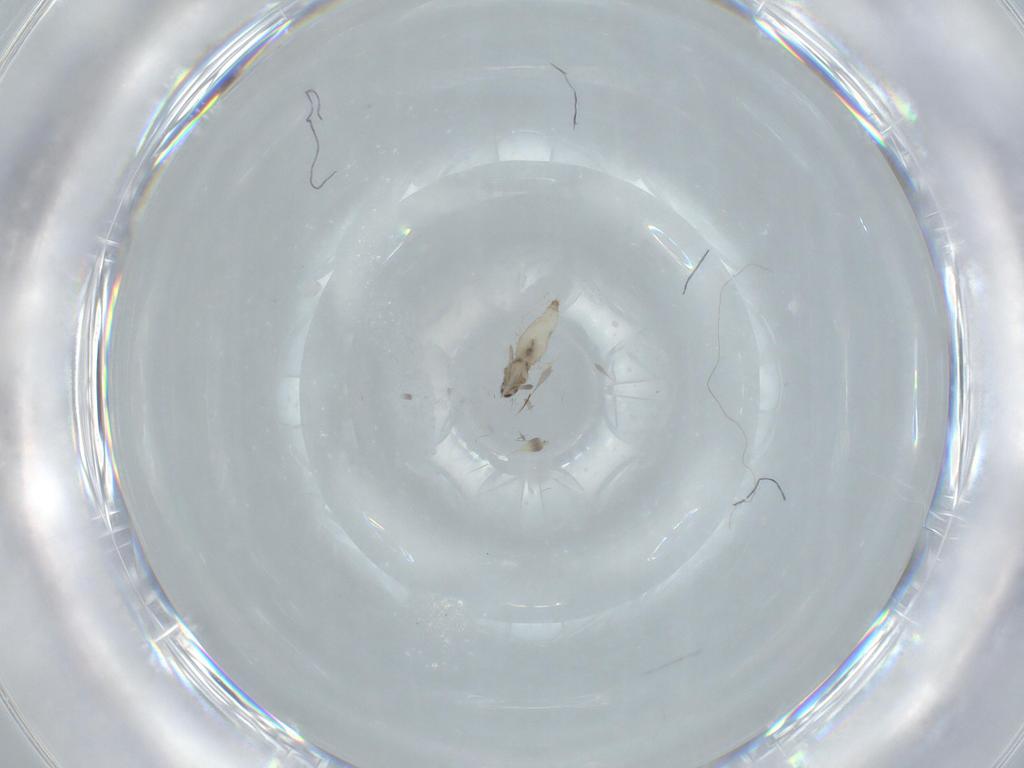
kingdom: Animalia
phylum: Arthropoda
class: Insecta
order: Diptera
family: Cecidomyiidae
